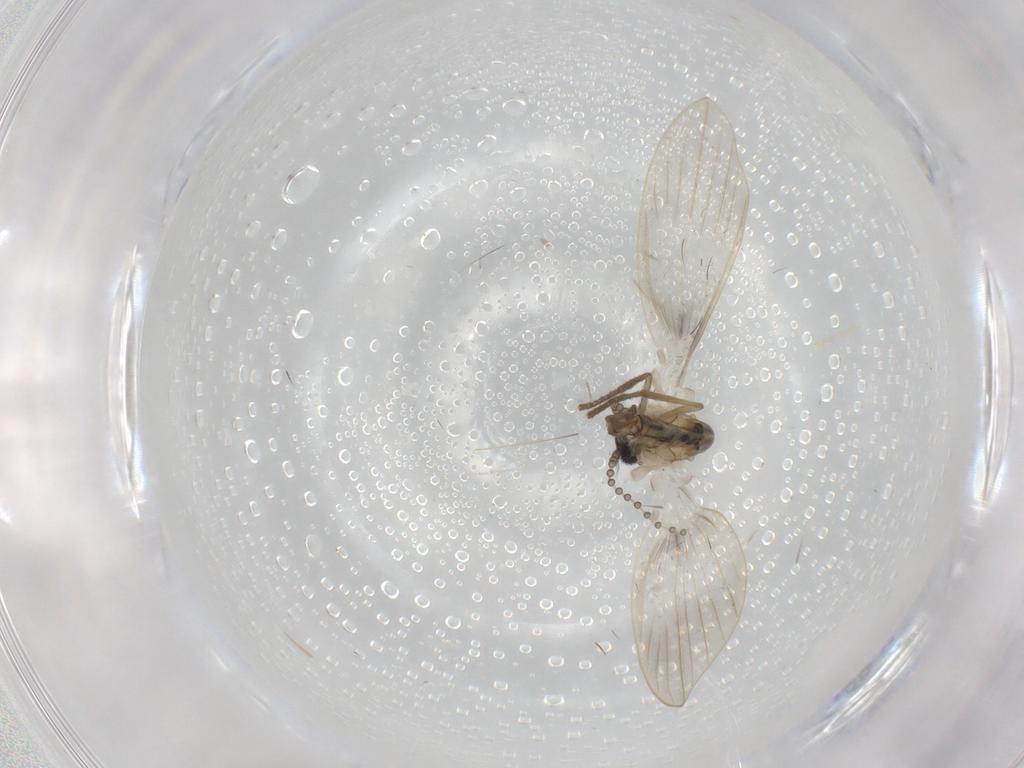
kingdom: Animalia
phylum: Arthropoda
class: Insecta
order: Diptera
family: Psychodidae
